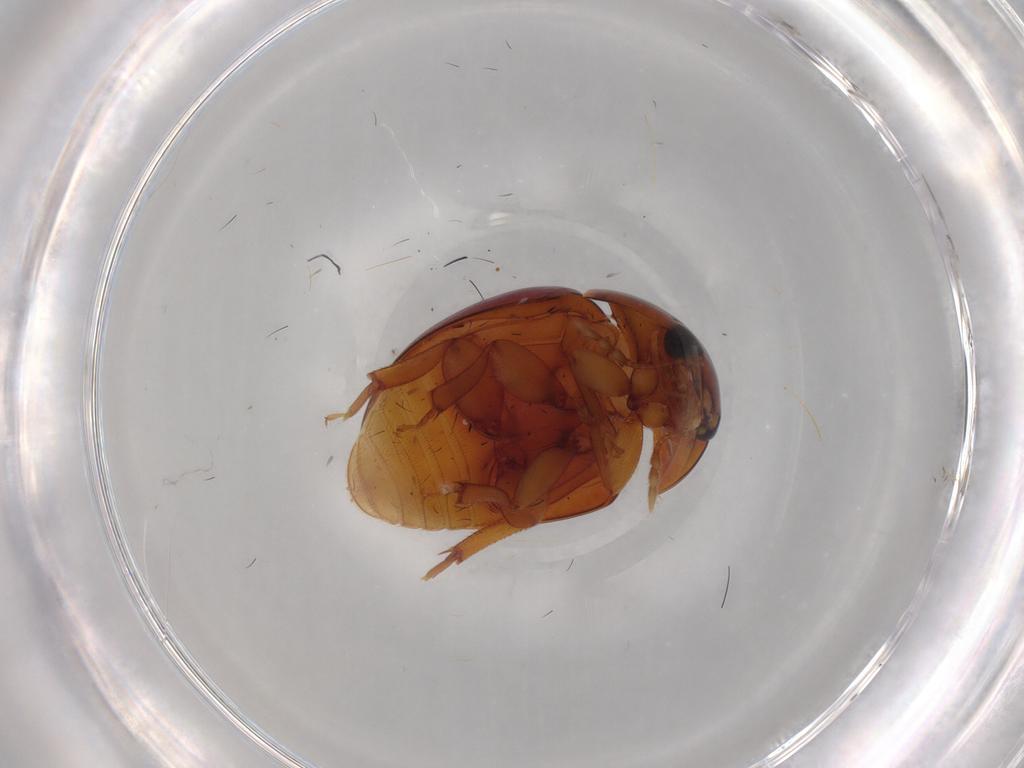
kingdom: Animalia
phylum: Arthropoda
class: Insecta
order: Coleoptera
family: Phalacridae
